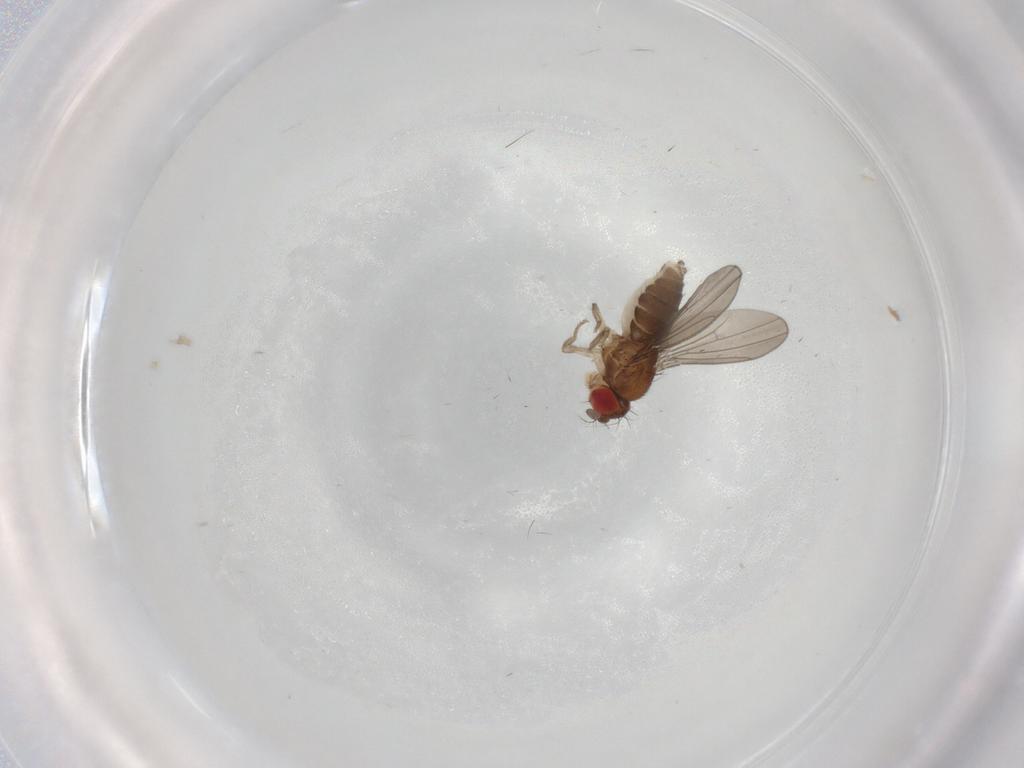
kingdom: Animalia
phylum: Arthropoda
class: Insecta
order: Diptera
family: Drosophilidae
